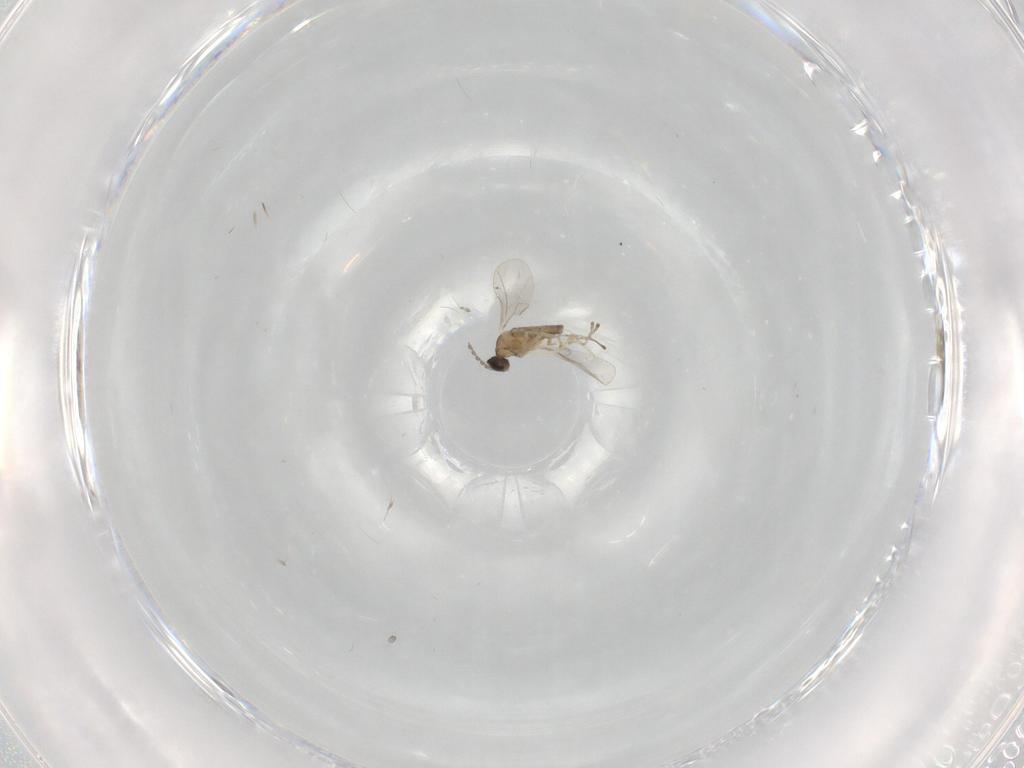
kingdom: Animalia
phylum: Arthropoda
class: Insecta
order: Diptera
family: Cecidomyiidae
